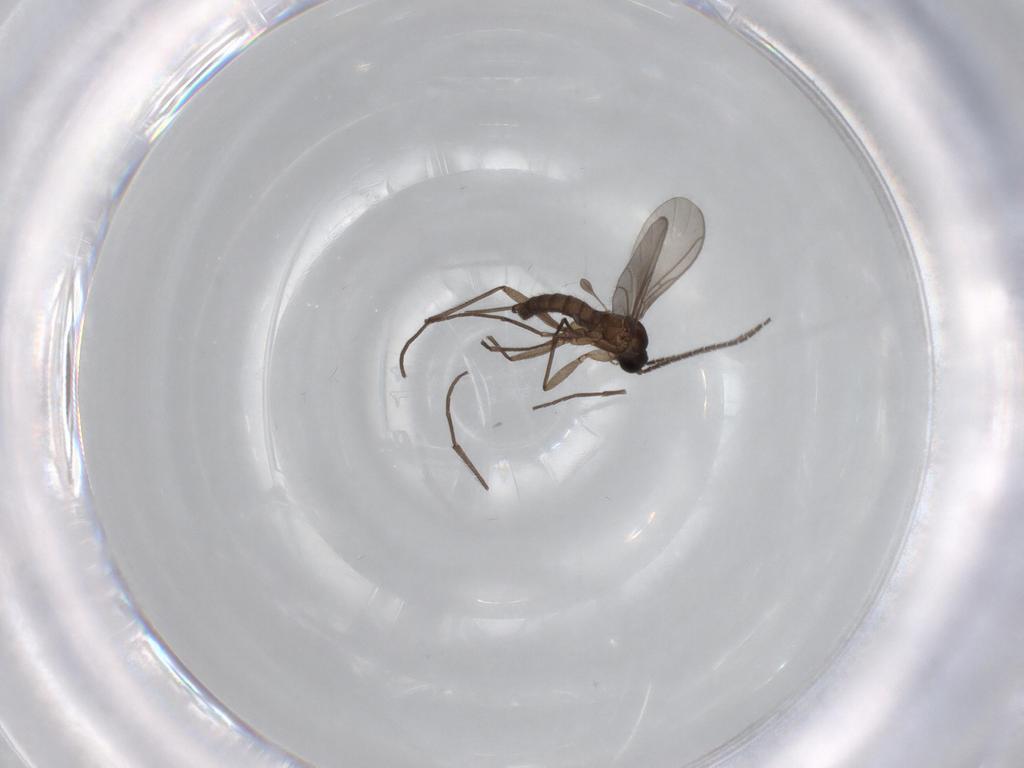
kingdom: Animalia
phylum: Arthropoda
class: Insecta
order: Diptera
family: Sciaridae
